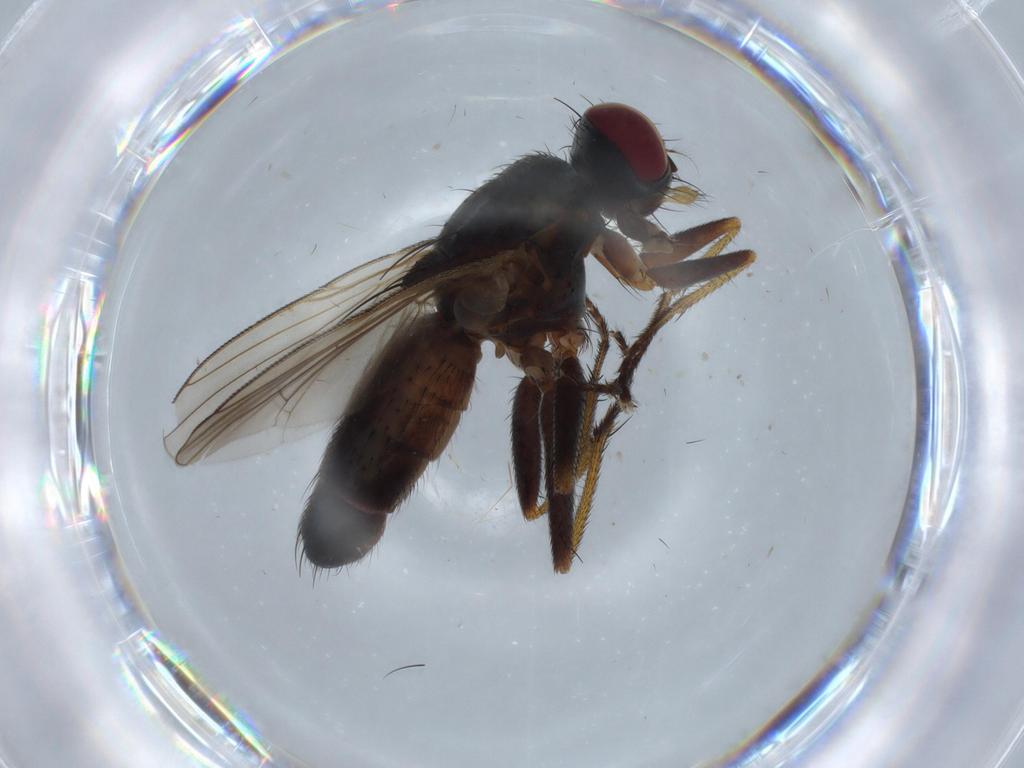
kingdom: Animalia
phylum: Arthropoda
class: Insecta
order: Diptera
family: Muscidae
